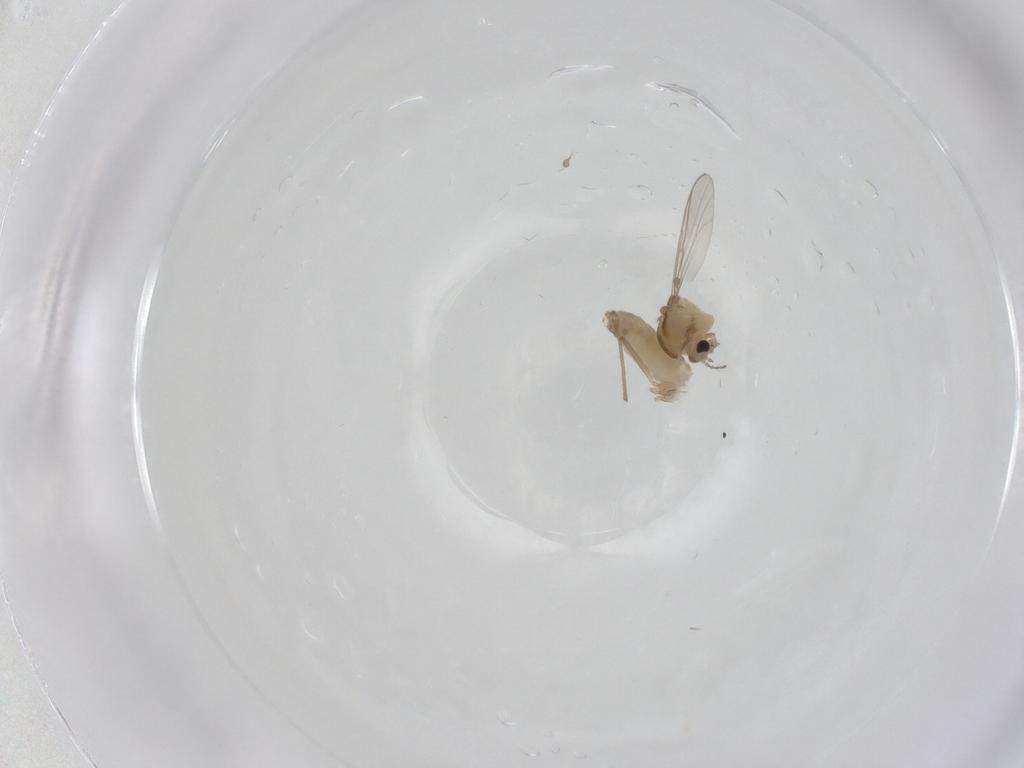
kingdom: Animalia
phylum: Arthropoda
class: Insecta
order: Diptera
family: Chironomidae
